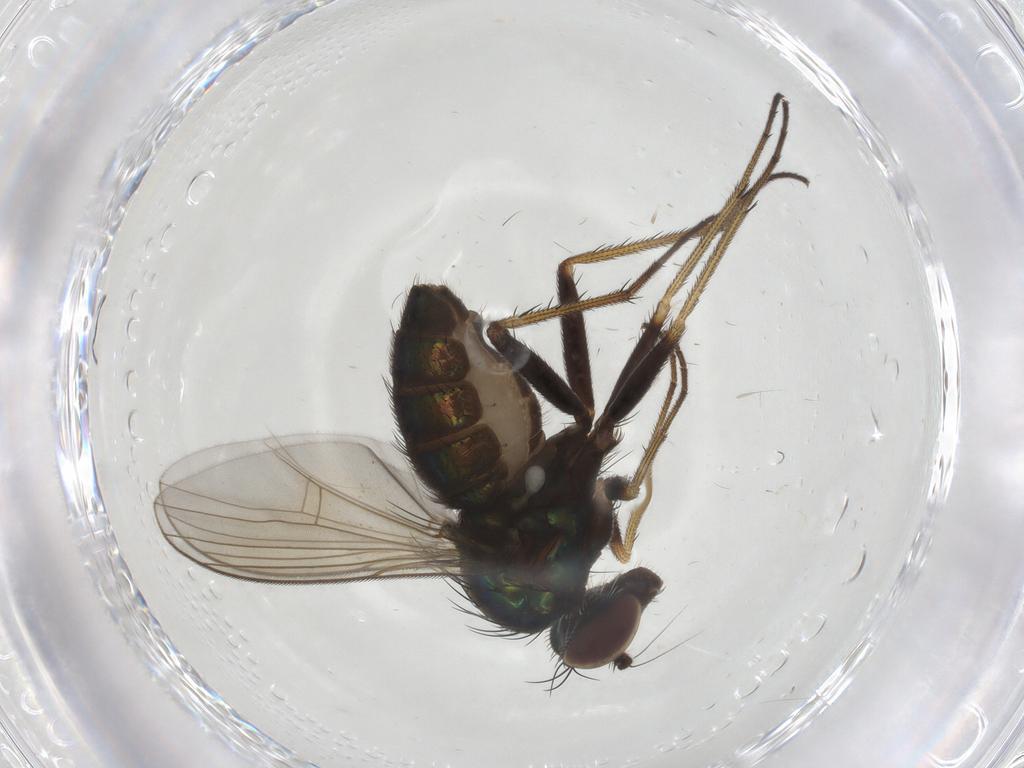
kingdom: Animalia
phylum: Arthropoda
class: Insecta
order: Diptera
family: Dolichopodidae
